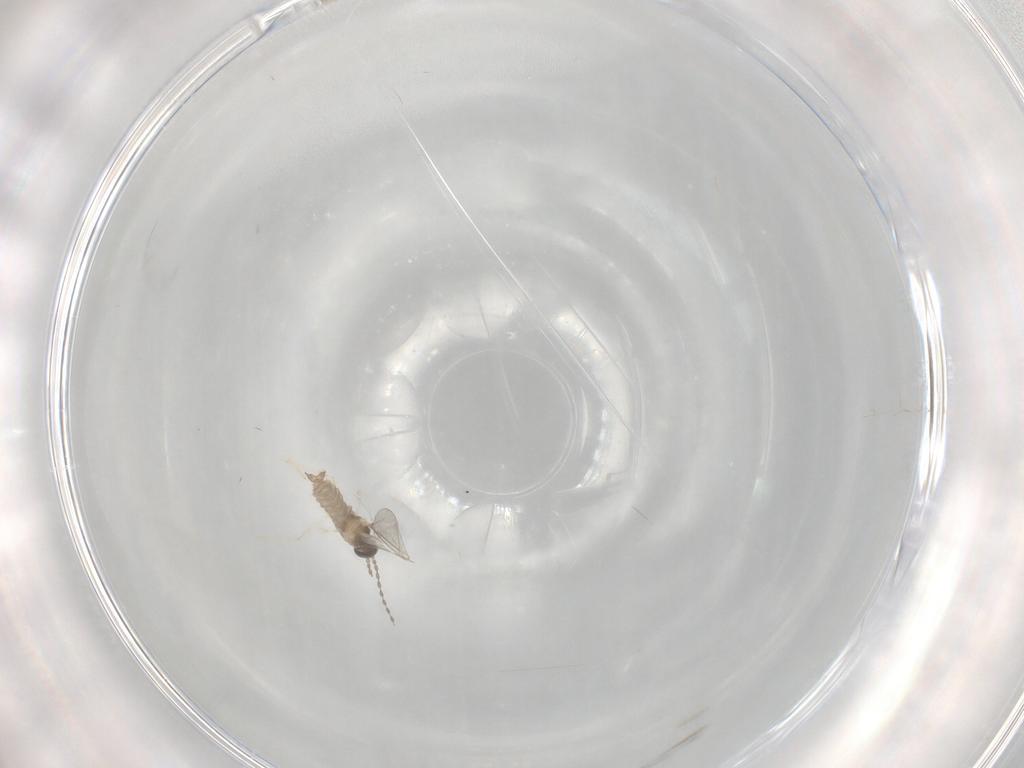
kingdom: Animalia
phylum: Arthropoda
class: Insecta
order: Diptera
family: Cecidomyiidae
